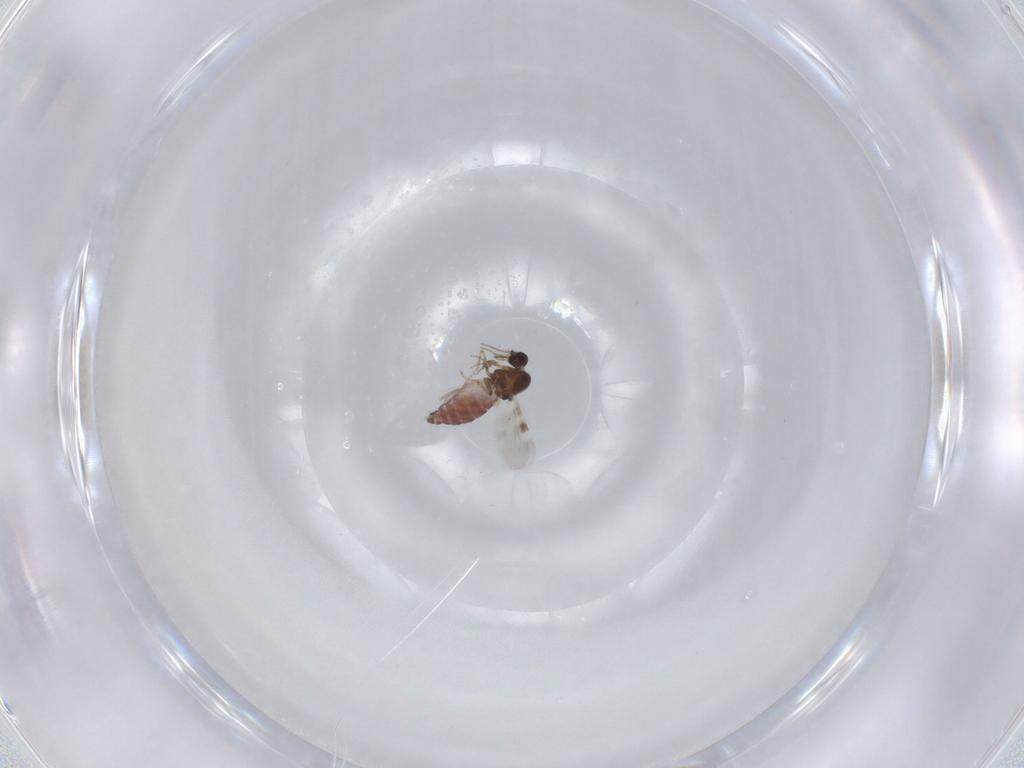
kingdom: Animalia
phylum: Arthropoda
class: Insecta
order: Diptera
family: Mycetophilidae
